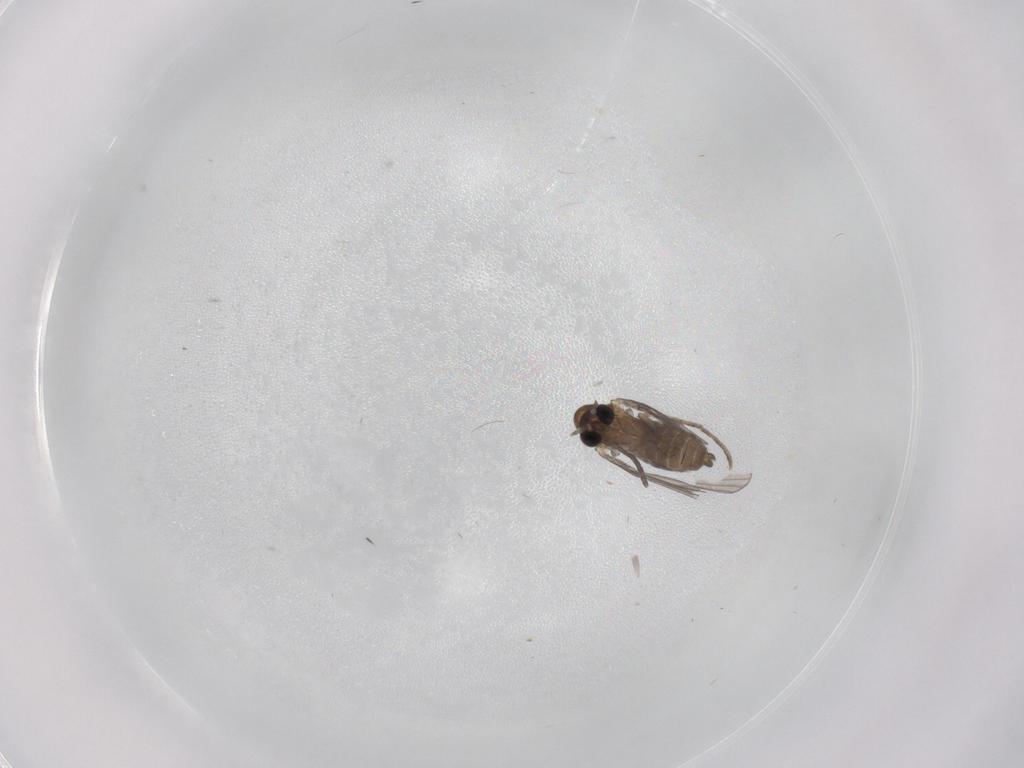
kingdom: Animalia
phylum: Arthropoda
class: Insecta
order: Diptera
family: Psychodidae
